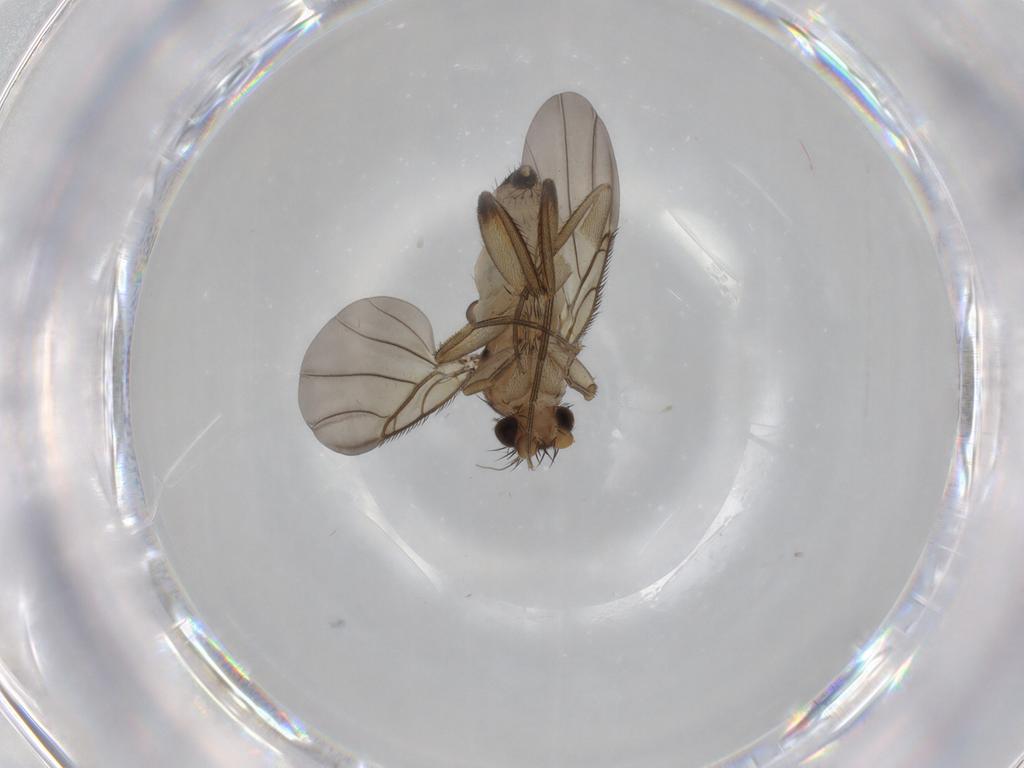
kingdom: Animalia
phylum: Arthropoda
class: Insecta
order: Diptera
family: Phoridae
